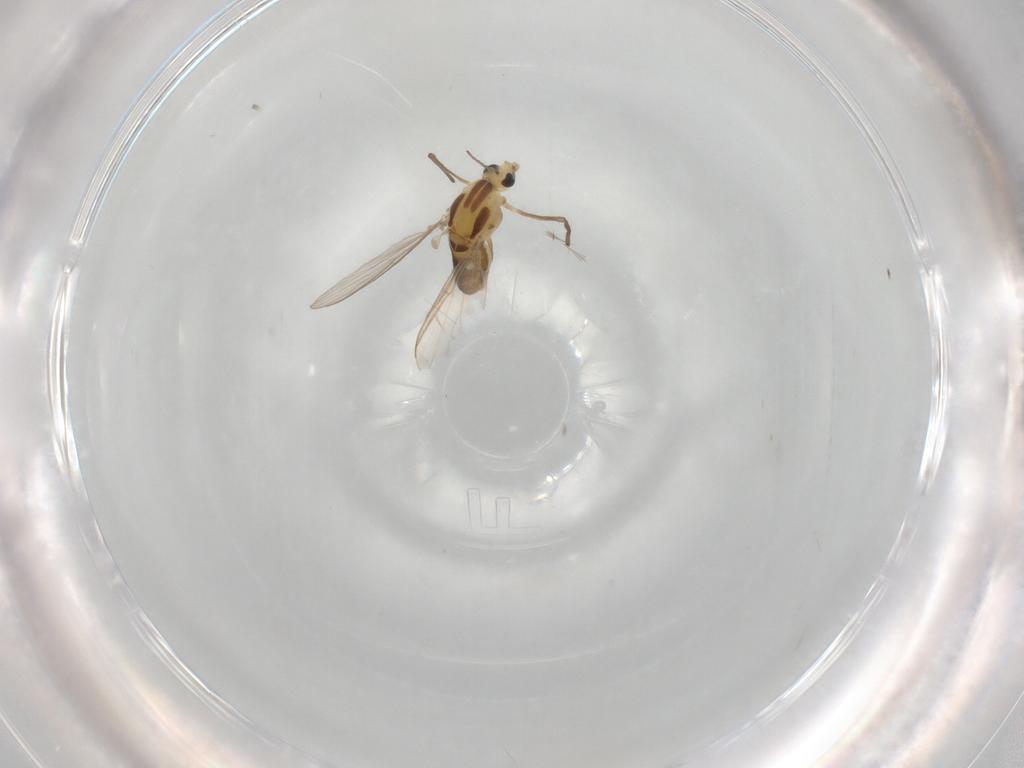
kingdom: Animalia
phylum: Arthropoda
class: Insecta
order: Diptera
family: Chironomidae
